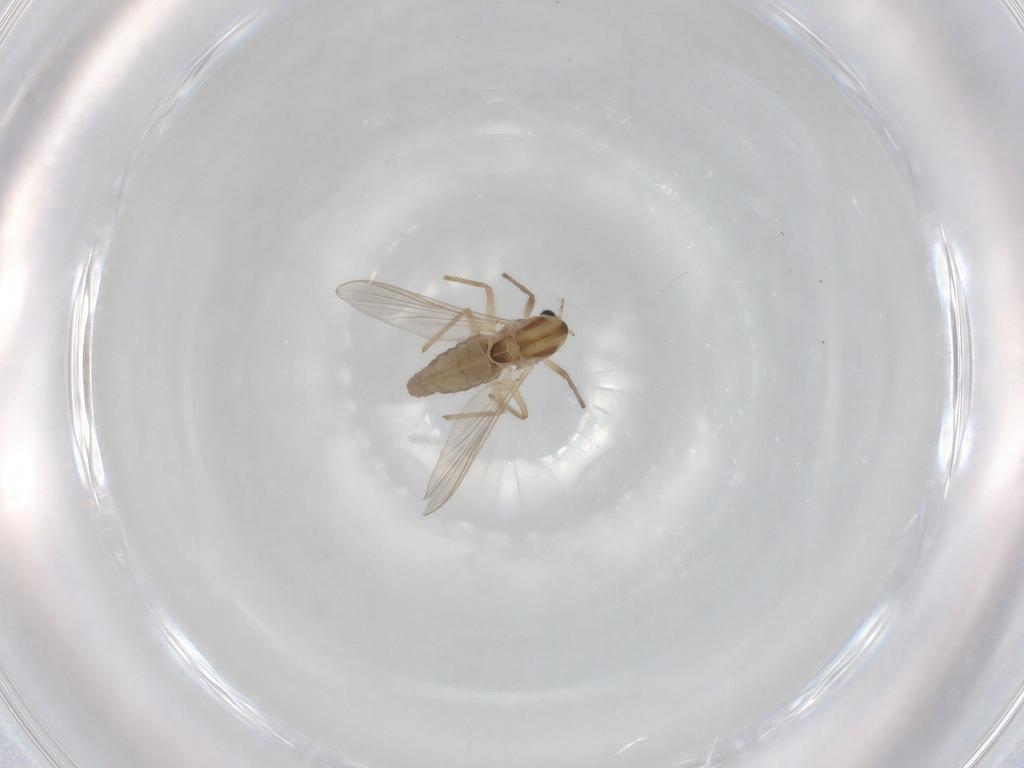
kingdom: Animalia
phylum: Arthropoda
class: Insecta
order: Diptera
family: Chironomidae
